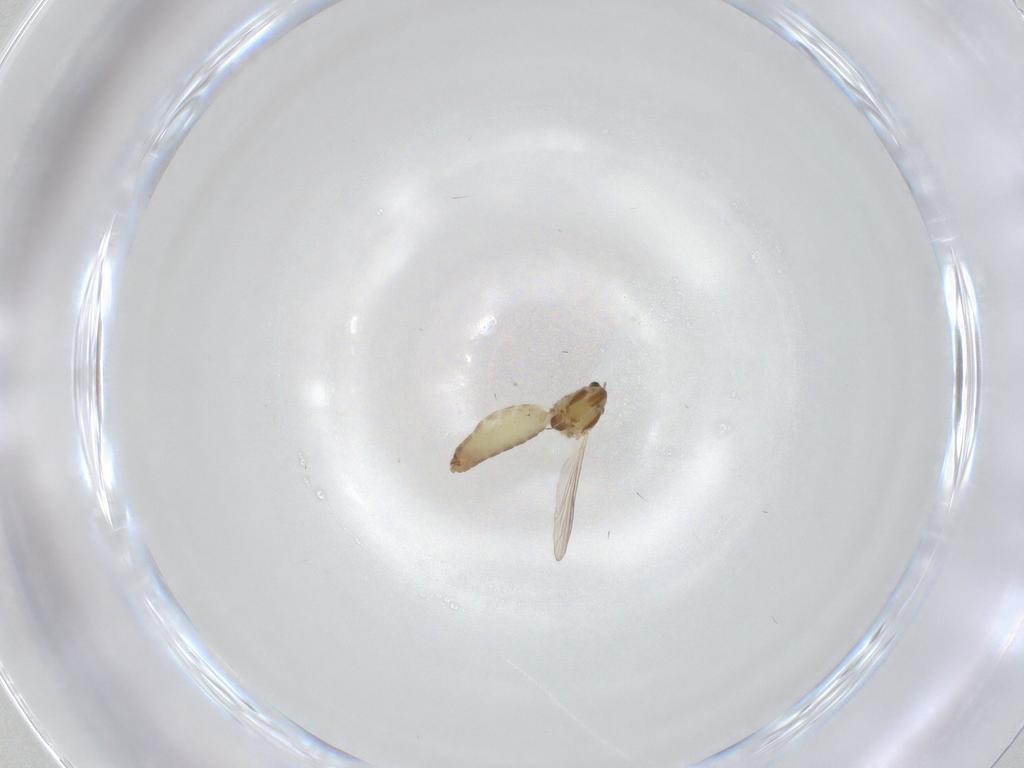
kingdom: Animalia
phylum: Arthropoda
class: Insecta
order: Diptera
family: Chironomidae
